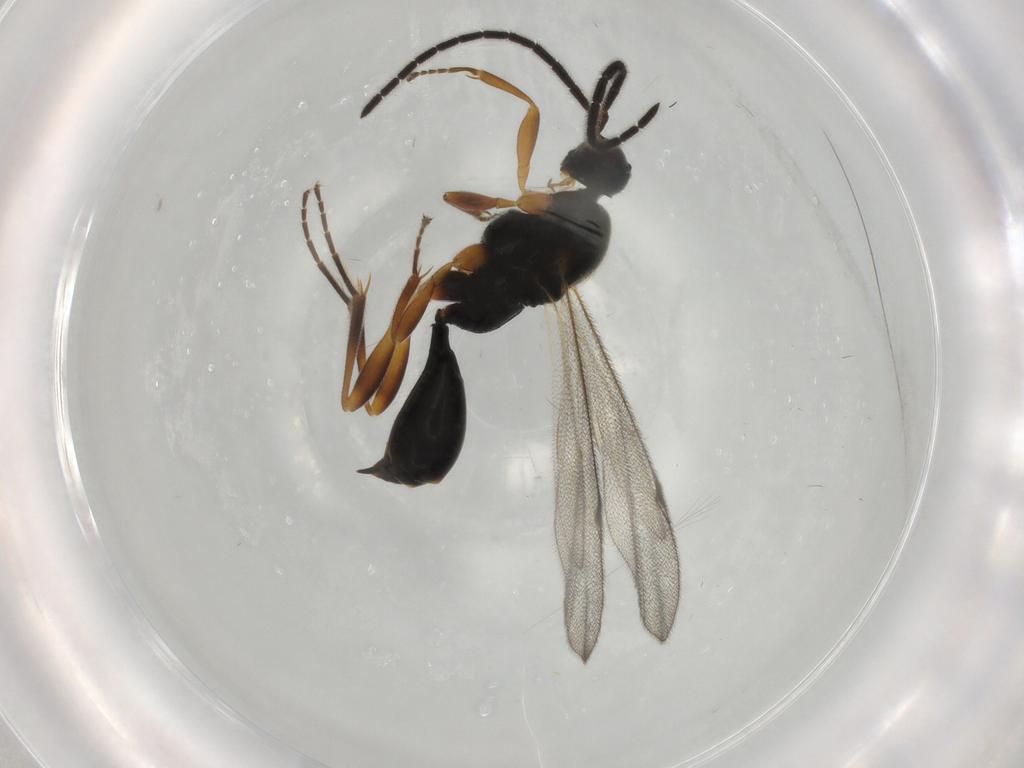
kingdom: Animalia
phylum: Arthropoda
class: Insecta
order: Hymenoptera
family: Proctotrupidae
